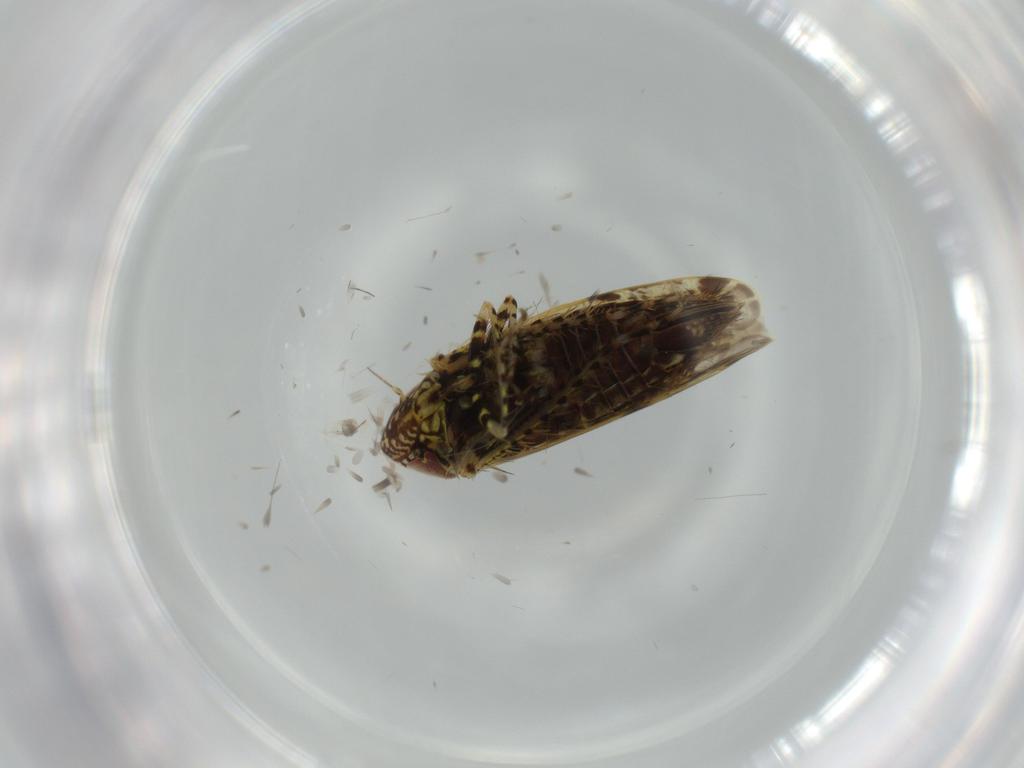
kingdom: Animalia
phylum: Arthropoda
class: Insecta
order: Hemiptera
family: Cicadellidae
